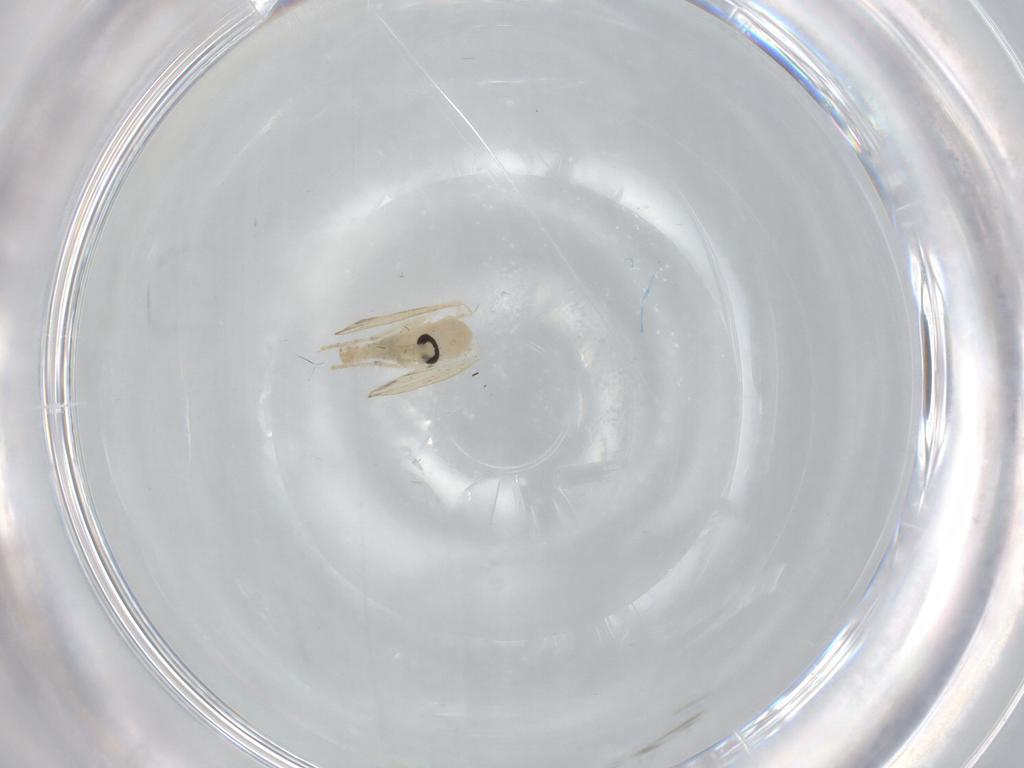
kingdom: Animalia
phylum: Arthropoda
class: Insecta
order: Diptera
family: Psychodidae
